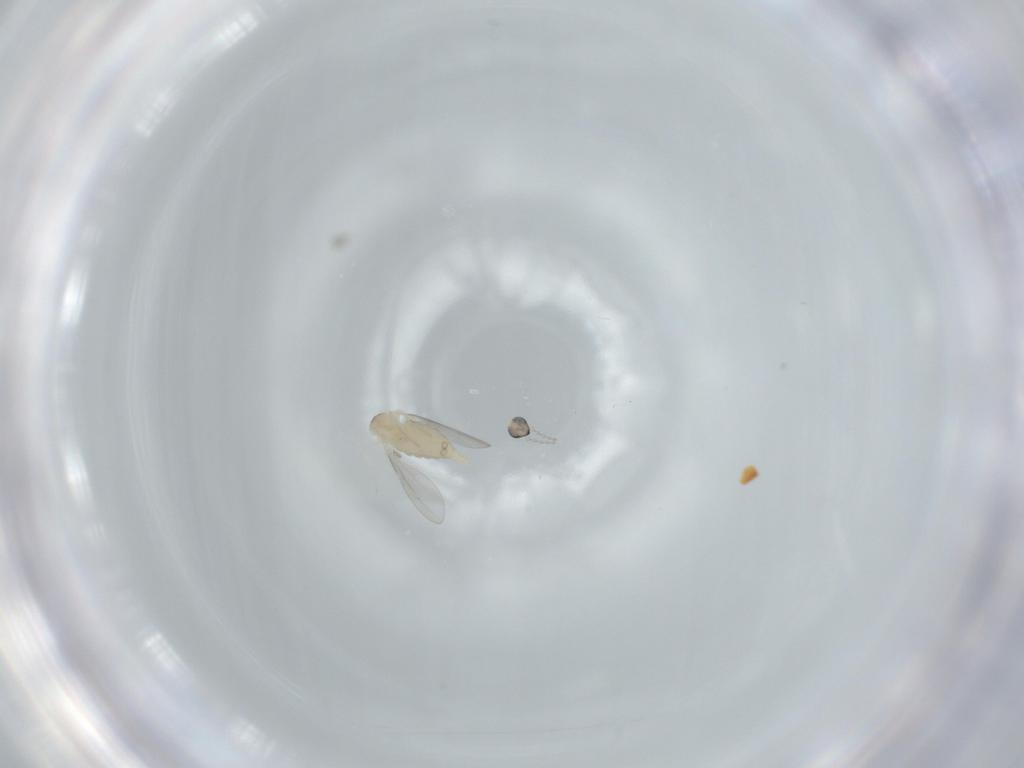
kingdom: Animalia
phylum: Arthropoda
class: Insecta
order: Diptera
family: Cecidomyiidae
